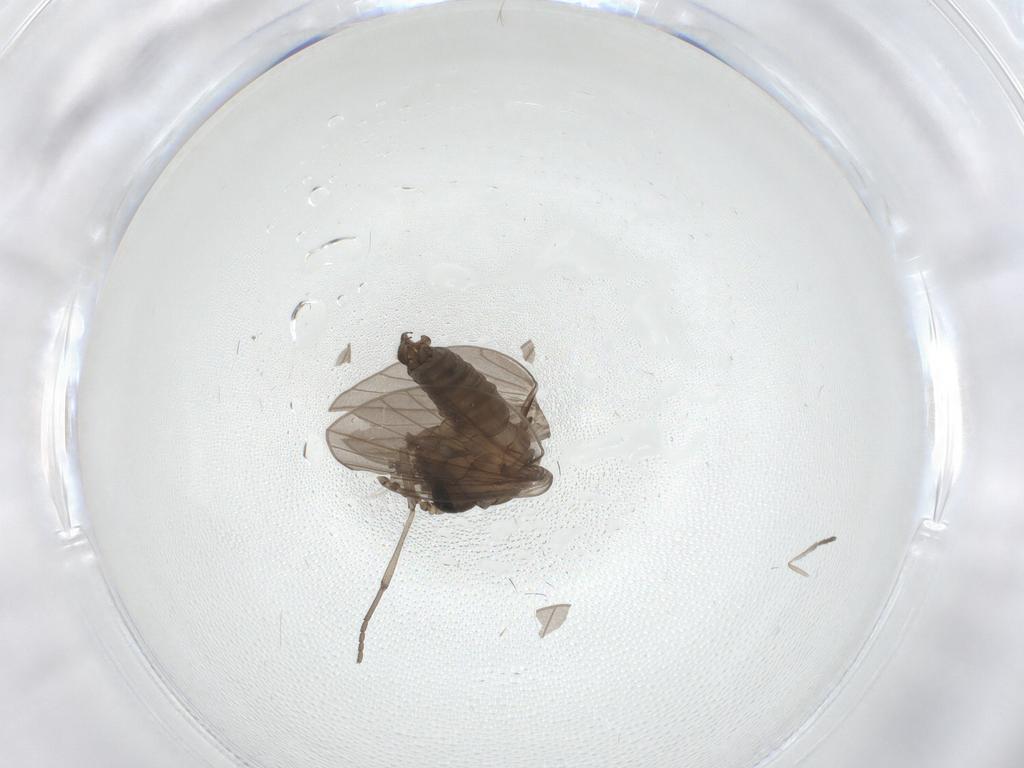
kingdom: Animalia
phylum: Arthropoda
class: Insecta
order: Diptera
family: Psychodidae
